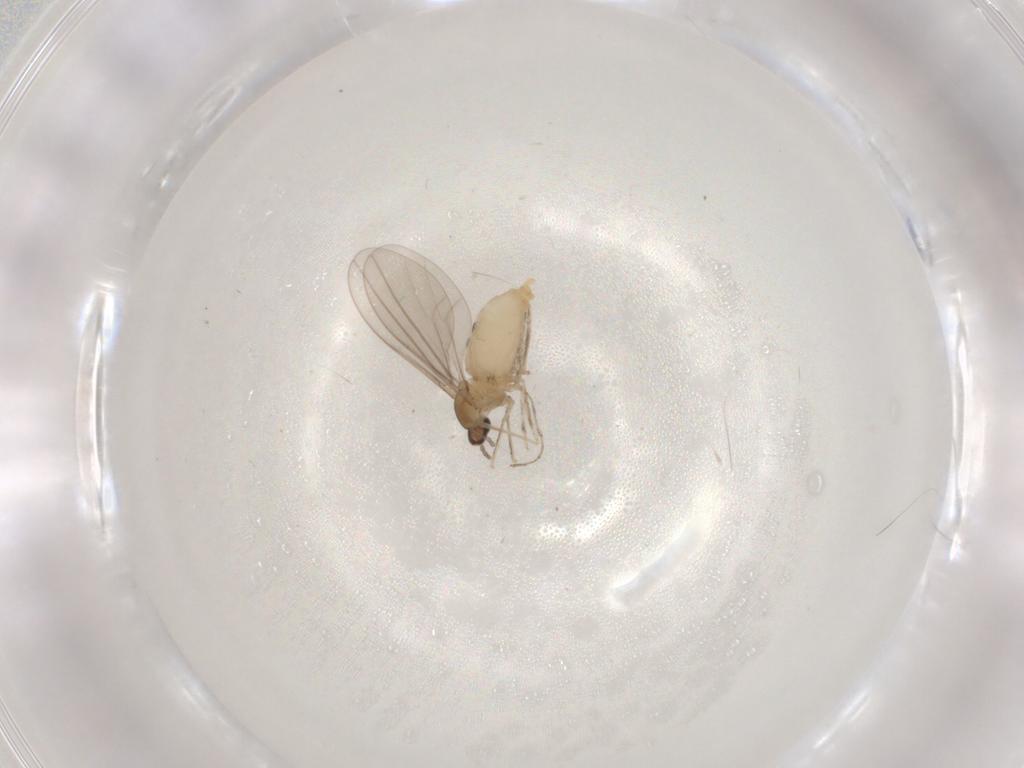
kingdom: Animalia
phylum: Arthropoda
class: Insecta
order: Diptera
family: Cecidomyiidae
